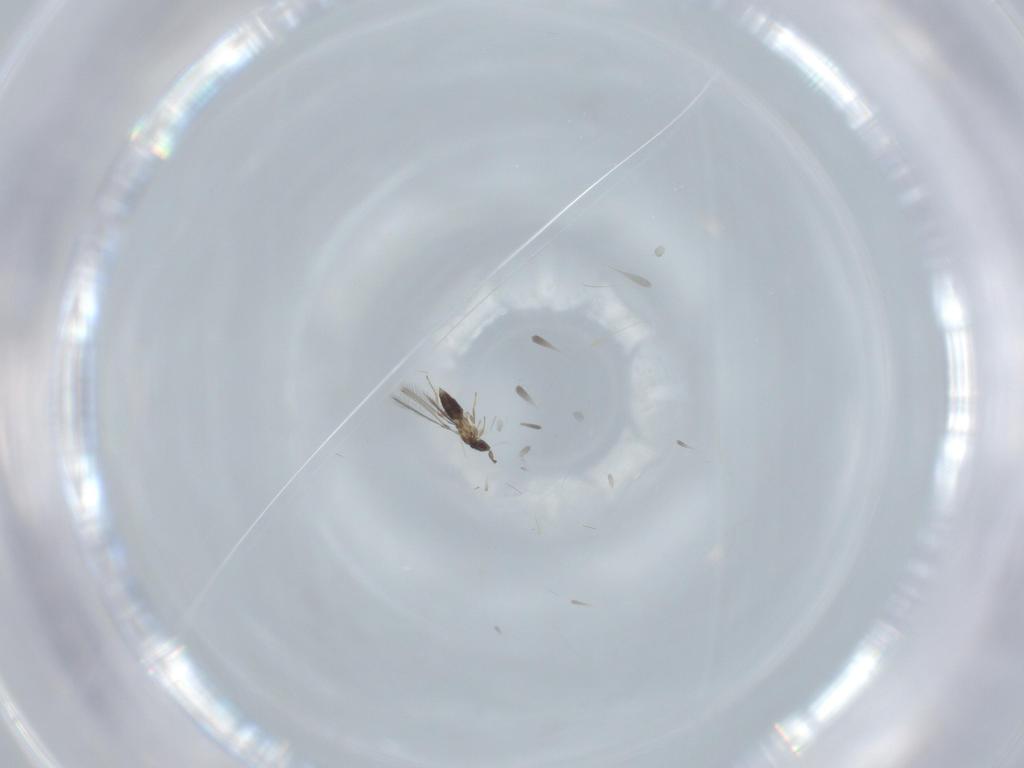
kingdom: Animalia
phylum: Arthropoda
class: Insecta
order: Hymenoptera
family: Mymaridae
